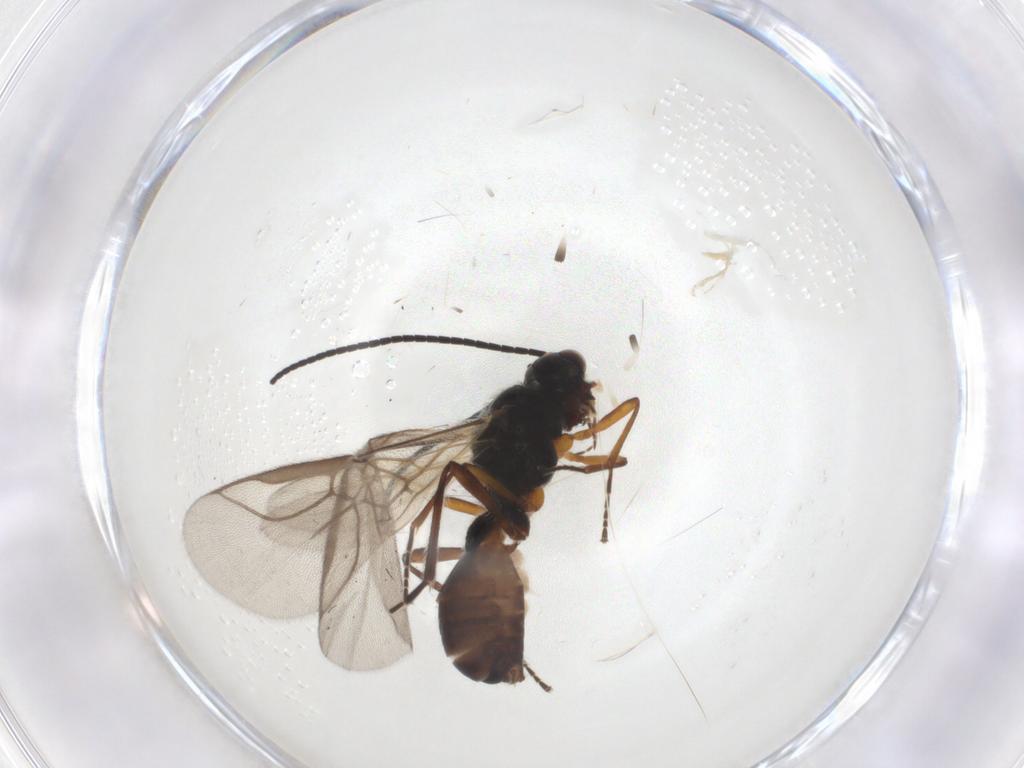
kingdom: Animalia
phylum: Arthropoda
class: Insecta
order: Hymenoptera
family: Braconidae
